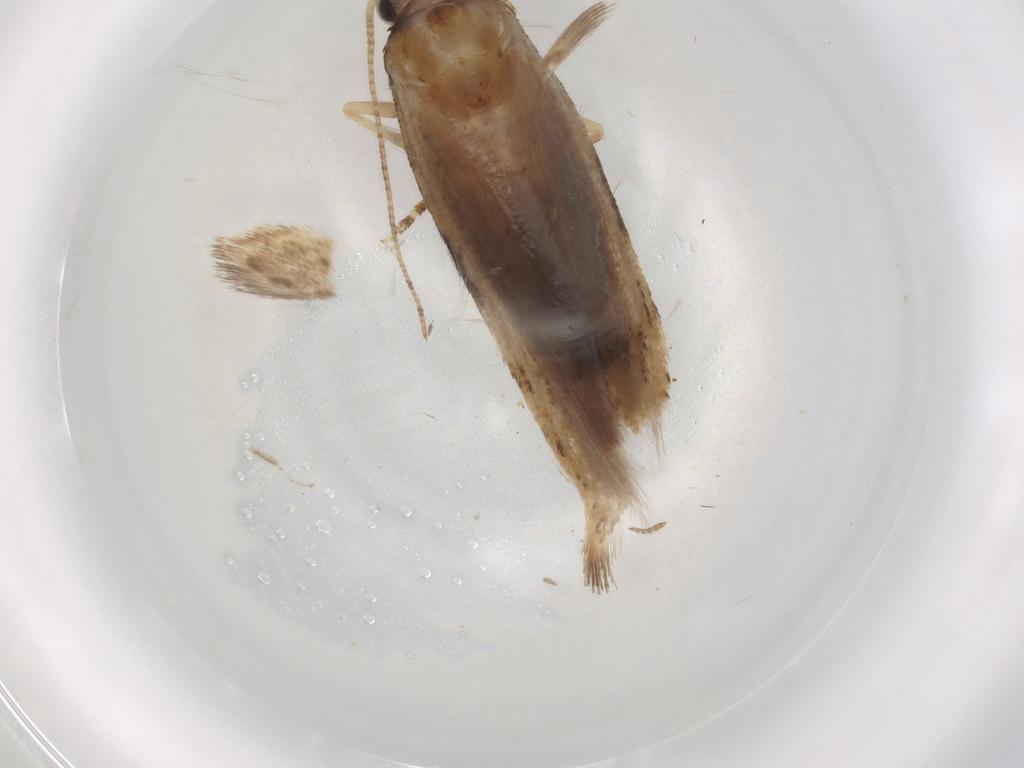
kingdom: Animalia
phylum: Arthropoda
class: Insecta
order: Lepidoptera
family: Gelechiidae
